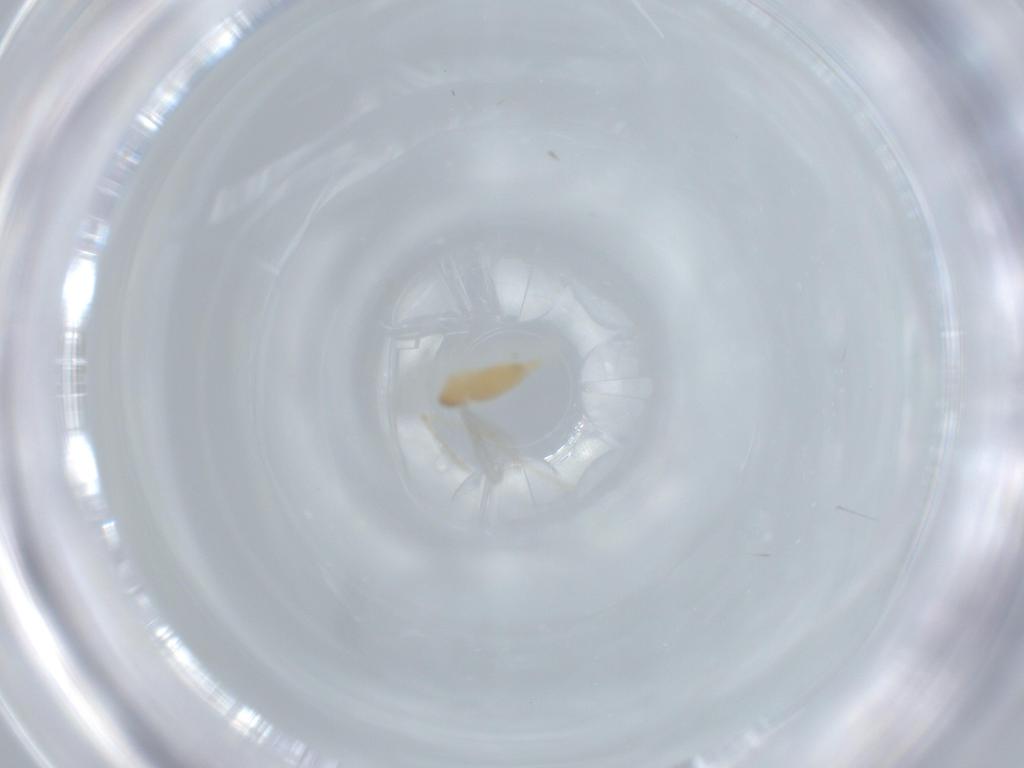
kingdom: Animalia
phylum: Arthropoda
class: Insecta
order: Diptera
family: Cecidomyiidae
